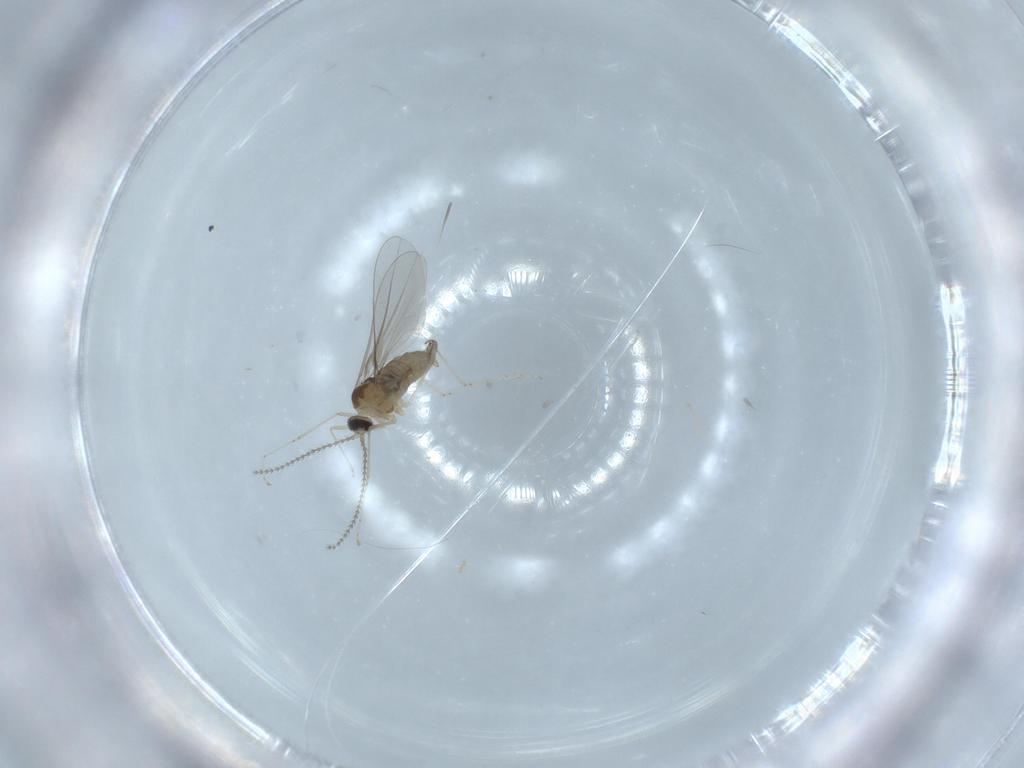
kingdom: Animalia
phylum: Arthropoda
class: Insecta
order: Diptera
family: Cecidomyiidae
